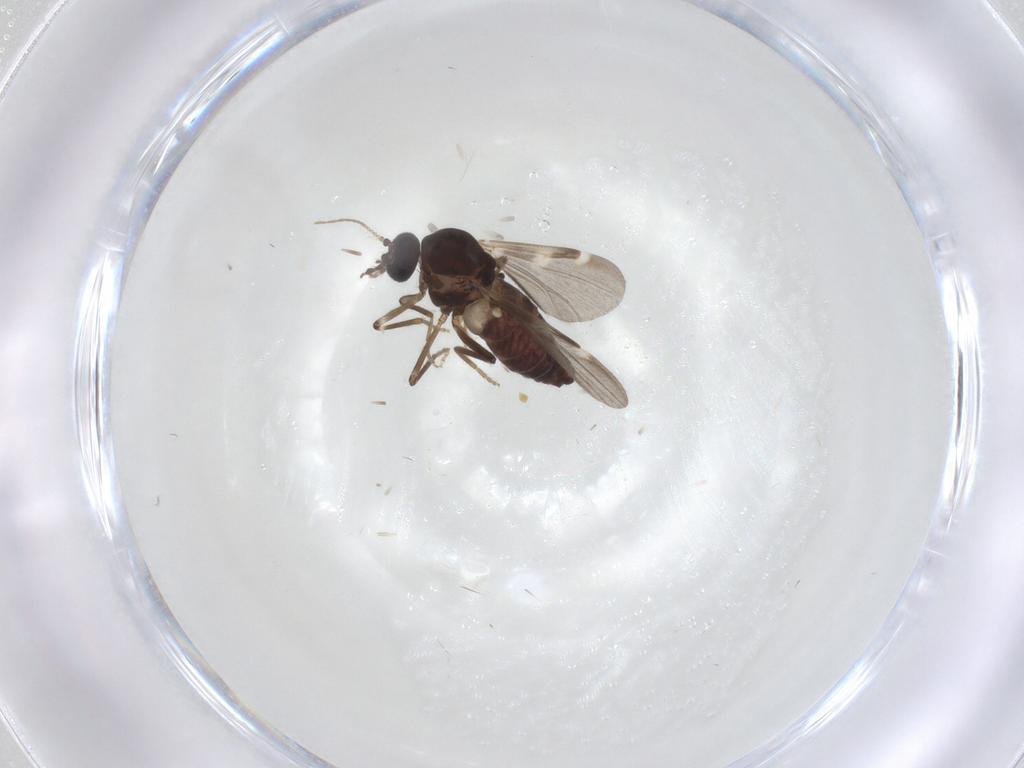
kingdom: Animalia
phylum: Arthropoda
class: Insecta
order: Diptera
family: Ceratopogonidae
